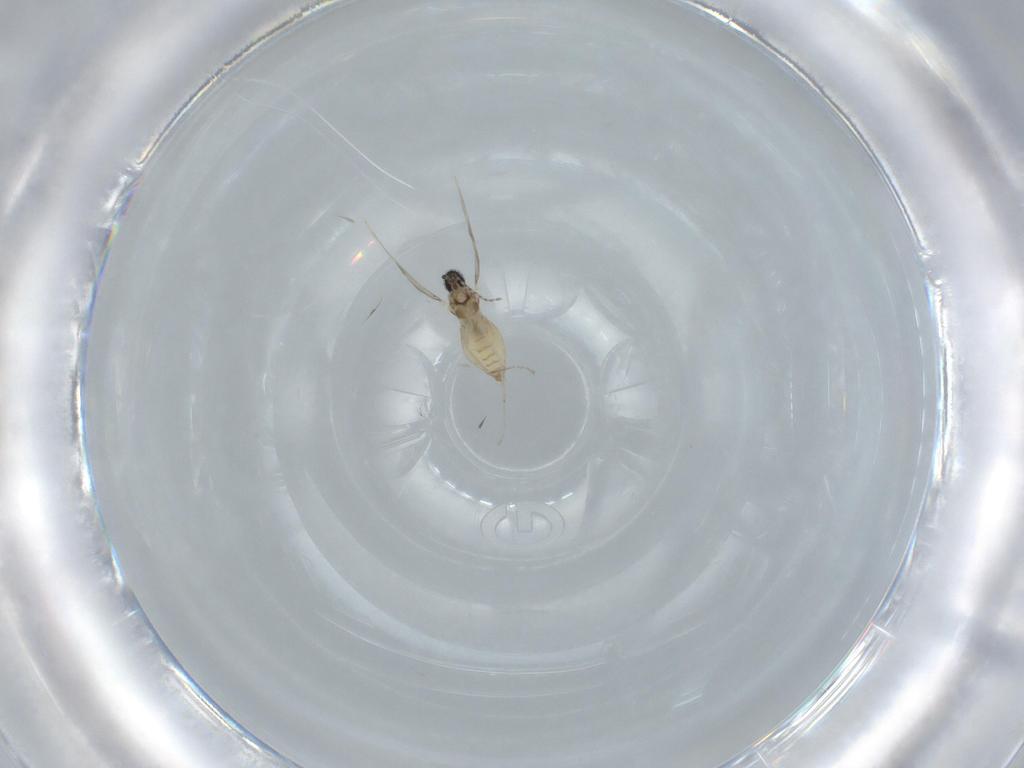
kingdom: Animalia
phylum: Arthropoda
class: Insecta
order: Diptera
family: Cecidomyiidae
